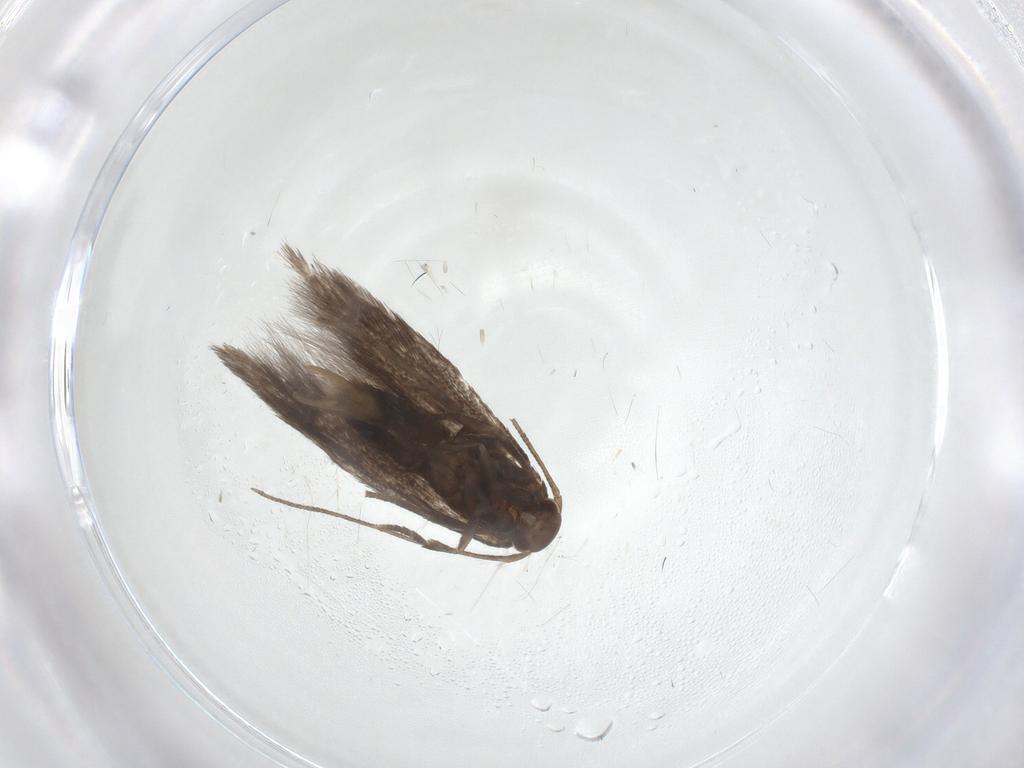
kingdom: Animalia
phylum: Arthropoda
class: Insecta
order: Lepidoptera
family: Elachistidae
